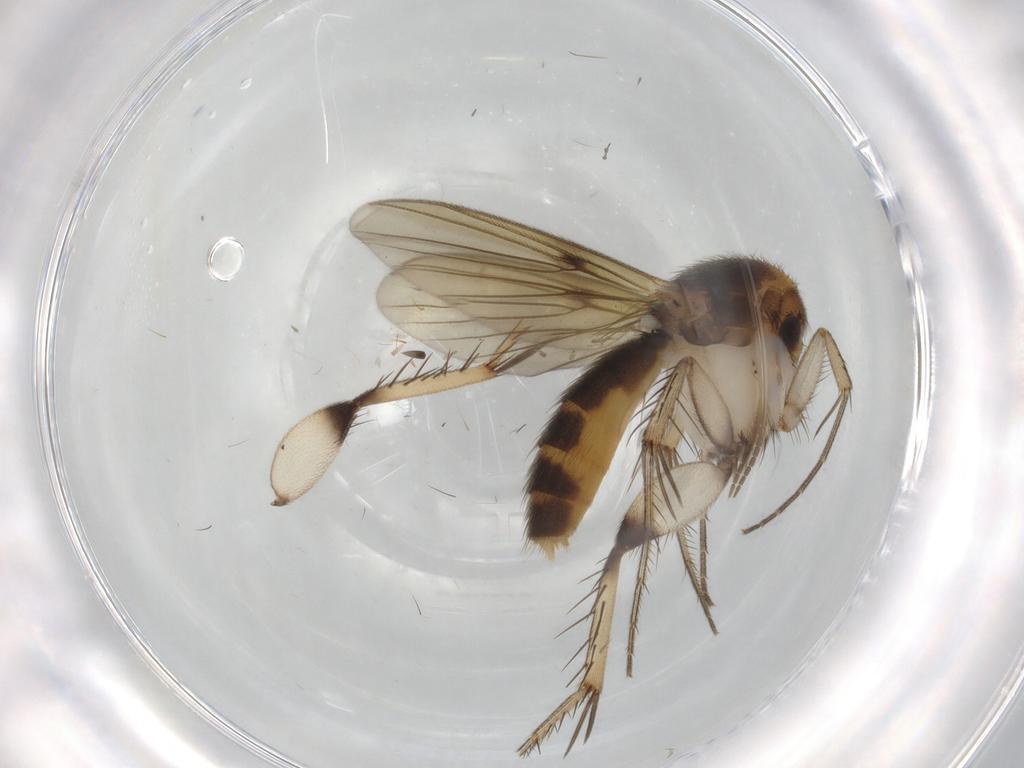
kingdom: Animalia
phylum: Arthropoda
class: Insecta
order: Diptera
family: Mycetophilidae
